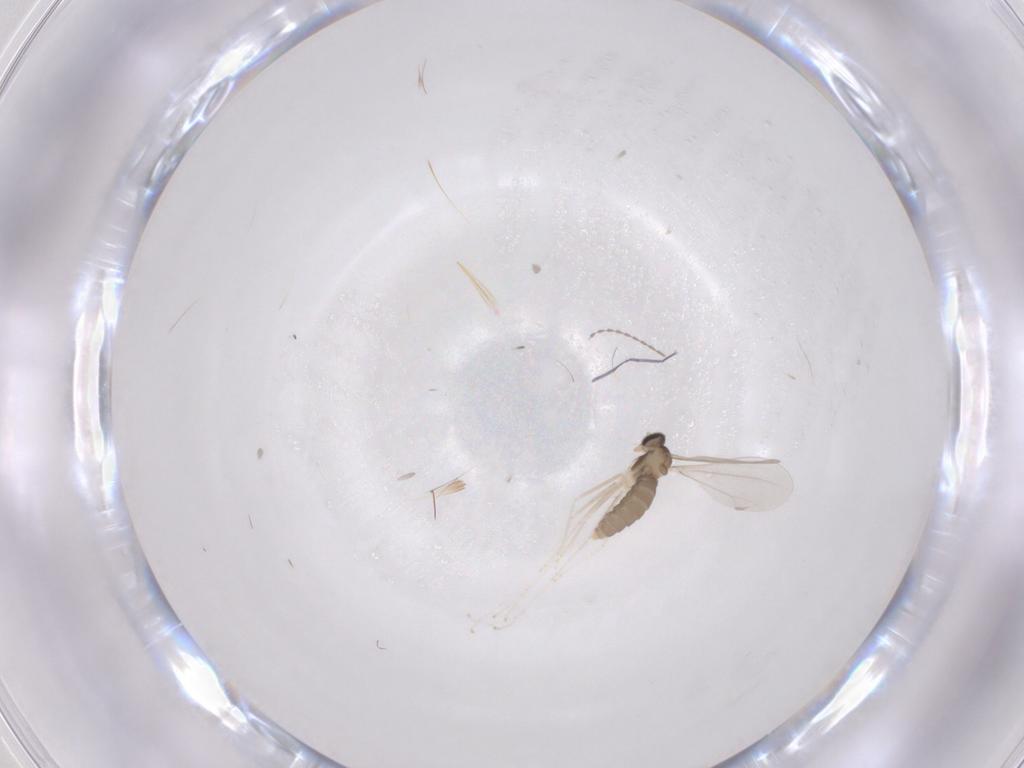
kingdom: Animalia
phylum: Arthropoda
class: Insecta
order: Diptera
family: Cecidomyiidae
